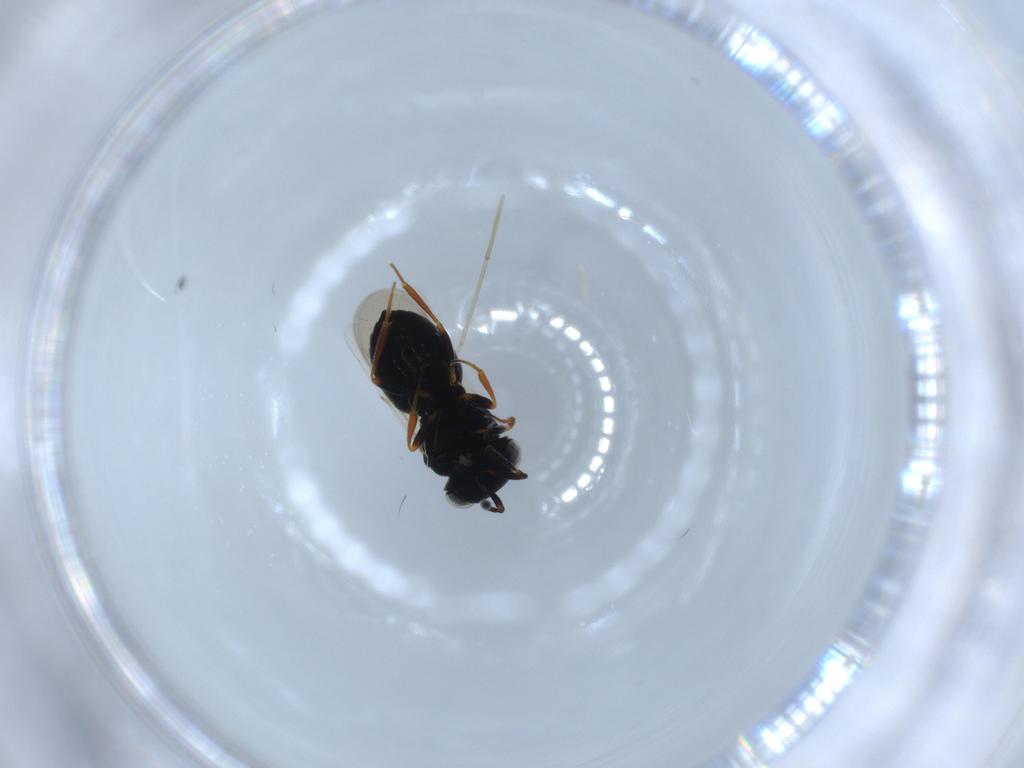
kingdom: Animalia
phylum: Arthropoda
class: Insecta
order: Hymenoptera
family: Scelionidae
